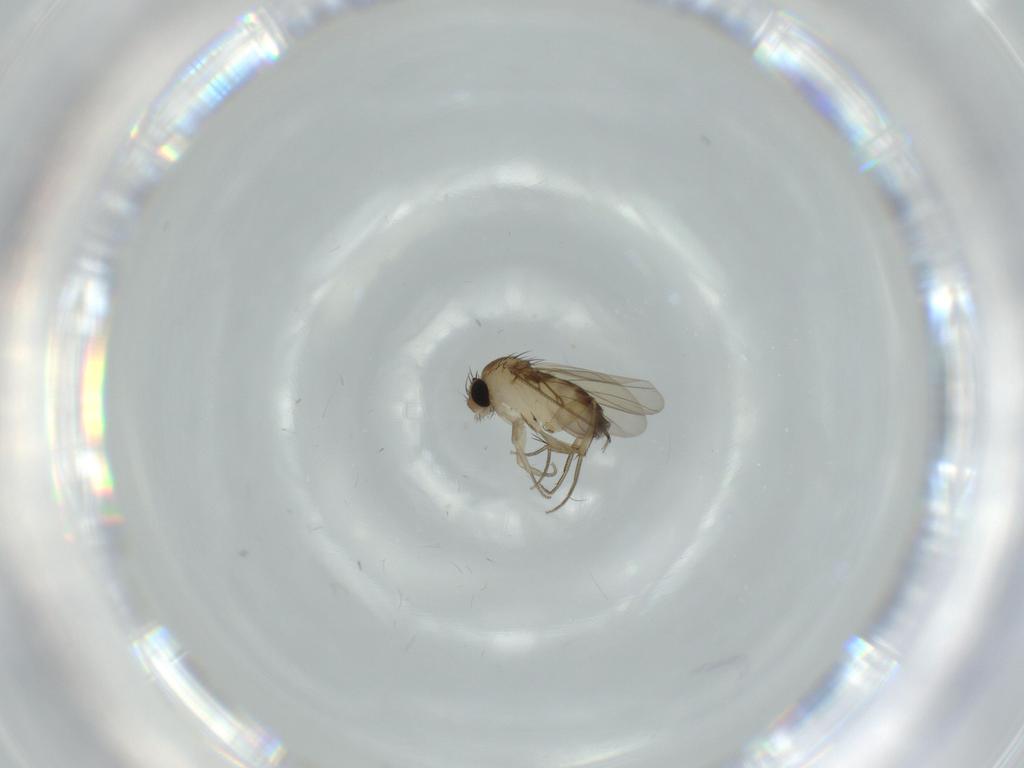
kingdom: Animalia
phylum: Arthropoda
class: Insecta
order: Diptera
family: Phoridae
